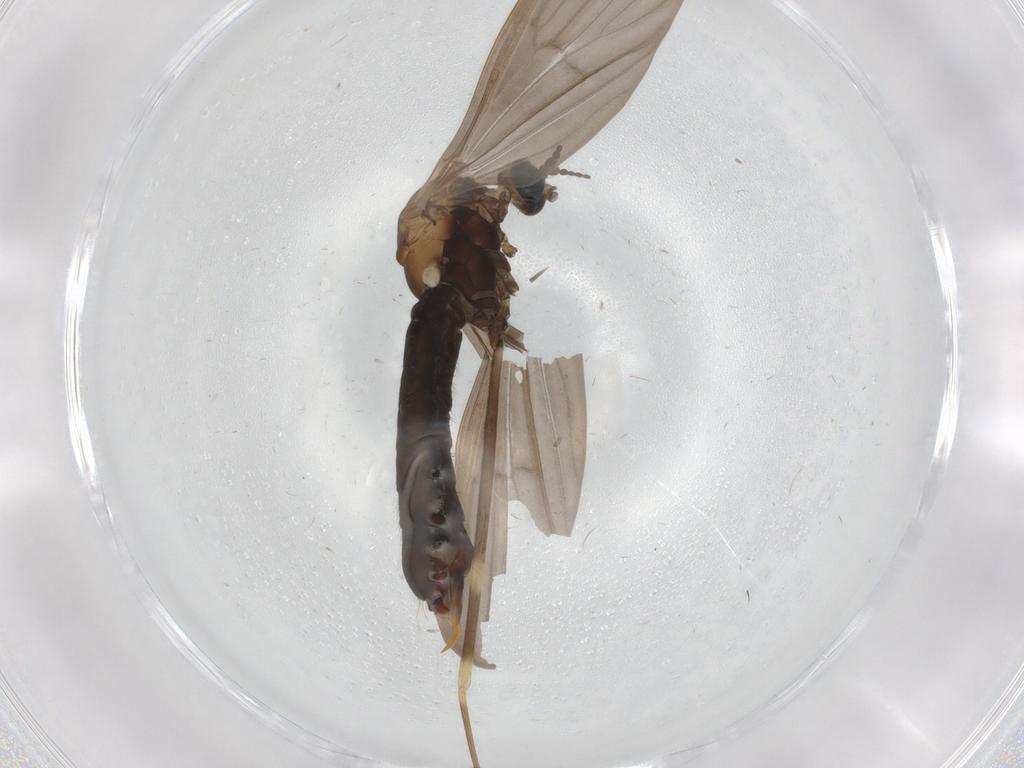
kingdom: Animalia
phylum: Arthropoda
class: Insecta
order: Diptera
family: Limoniidae
